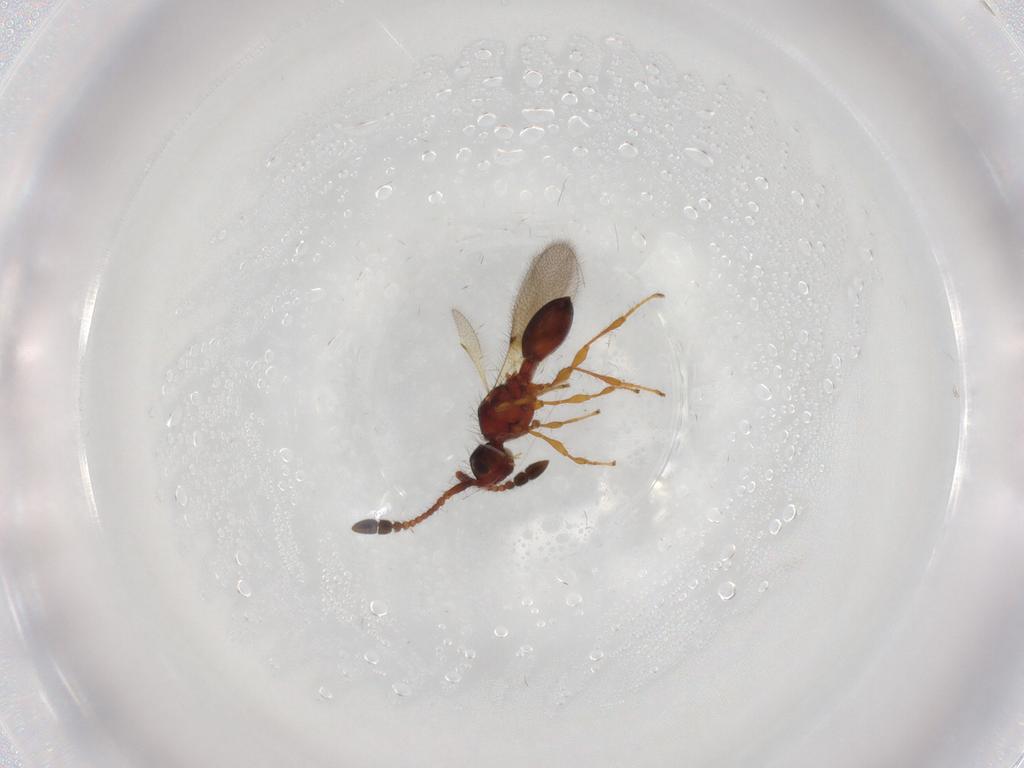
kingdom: Animalia
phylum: Arthropoda
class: Insecta
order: Hymenoptera
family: Diapriidae
